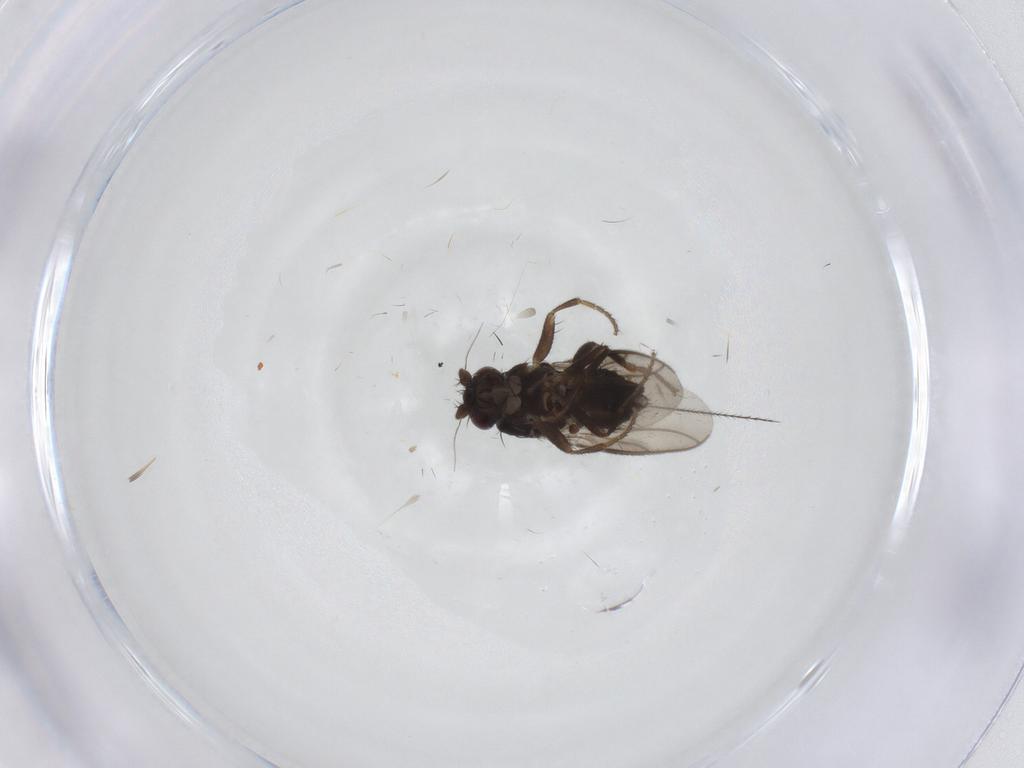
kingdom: Animalia
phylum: Arthropoda
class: Insecta
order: Diptera
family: Sphaeroceridae
